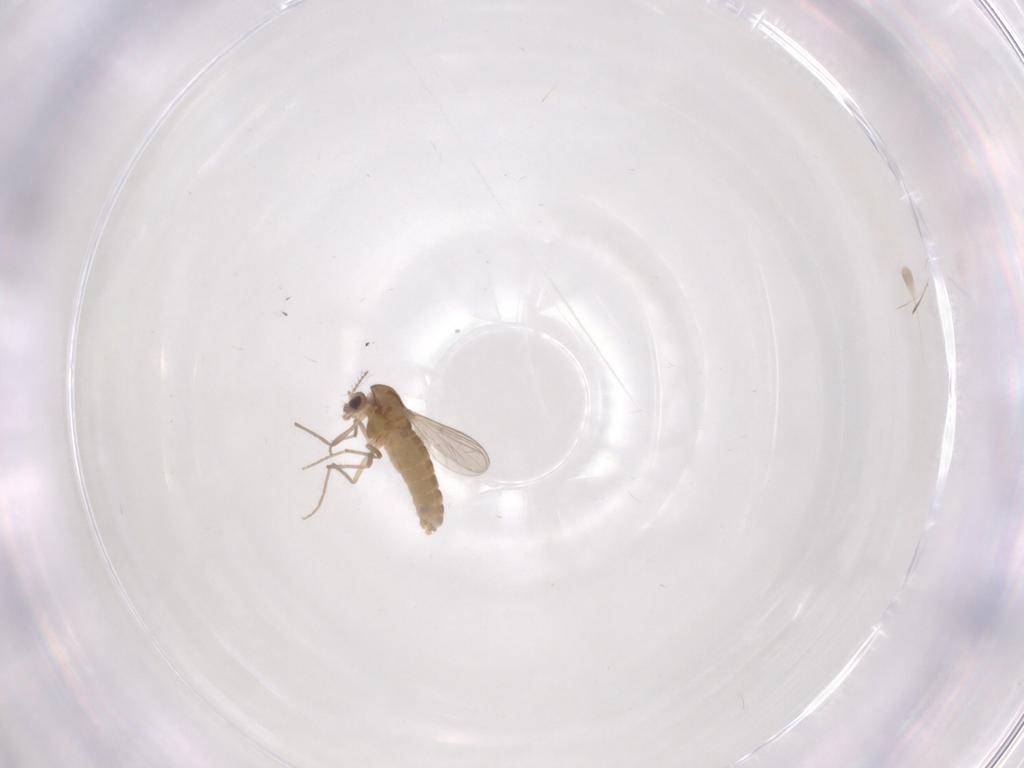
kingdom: Animalia
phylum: Arthropoda
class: Insecta
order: Diptera
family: Chironomidae
